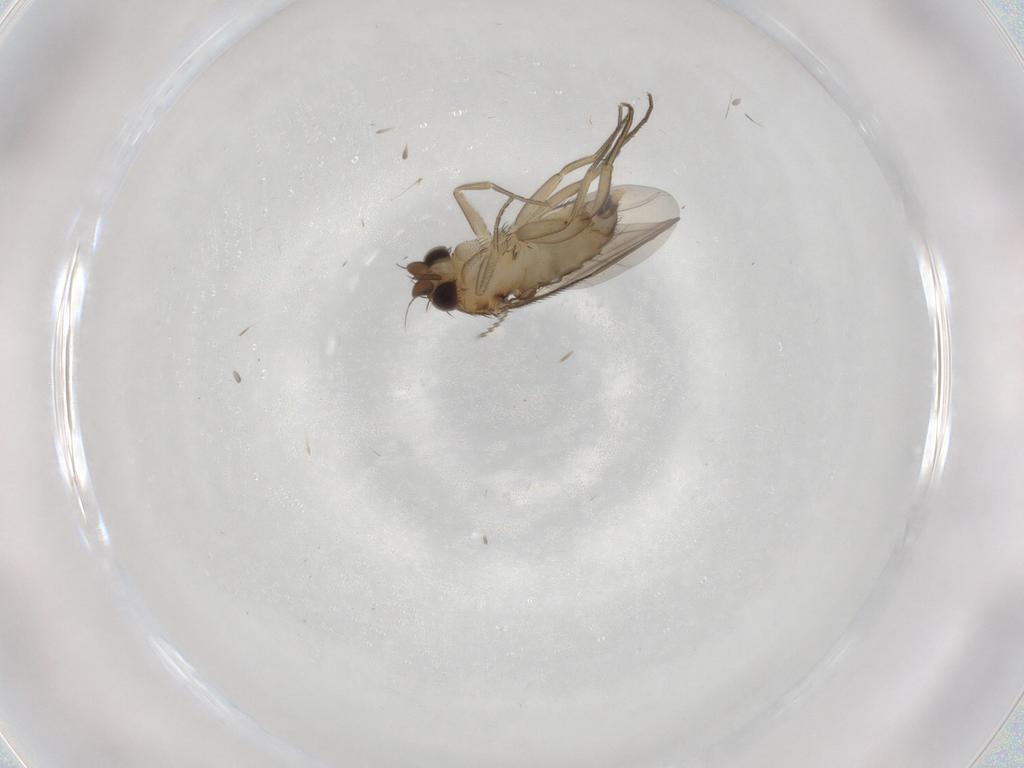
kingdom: Animalia
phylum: Arthropoda
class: Insecta
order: Diptera
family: Phoridae
